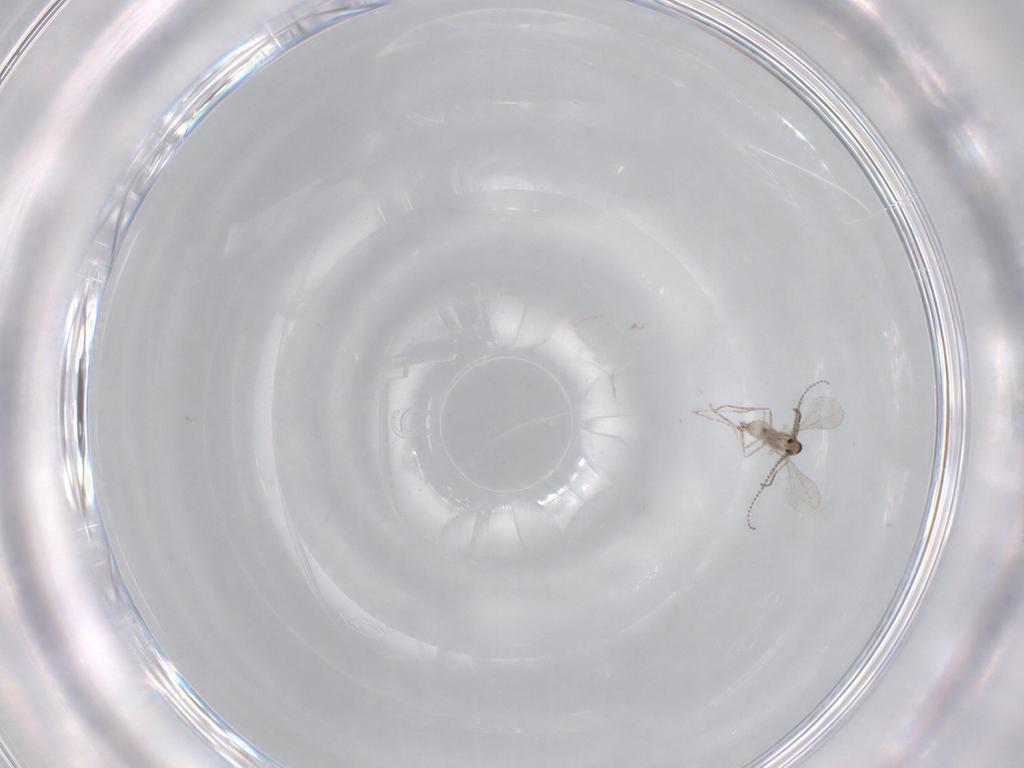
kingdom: Animalia
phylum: Arthropoda
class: Insecta
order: Diptera
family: Cecidomyiidae
